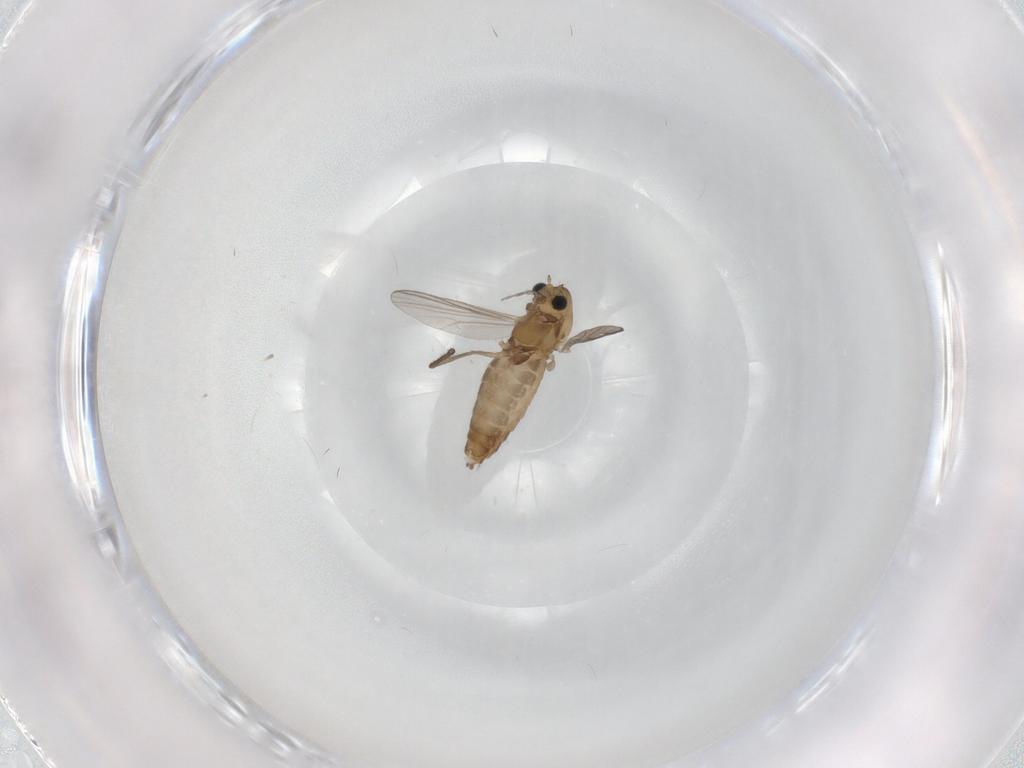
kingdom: Animalia
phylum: Arthropoda
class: Insecta
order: Diptera
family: Chironomidae
